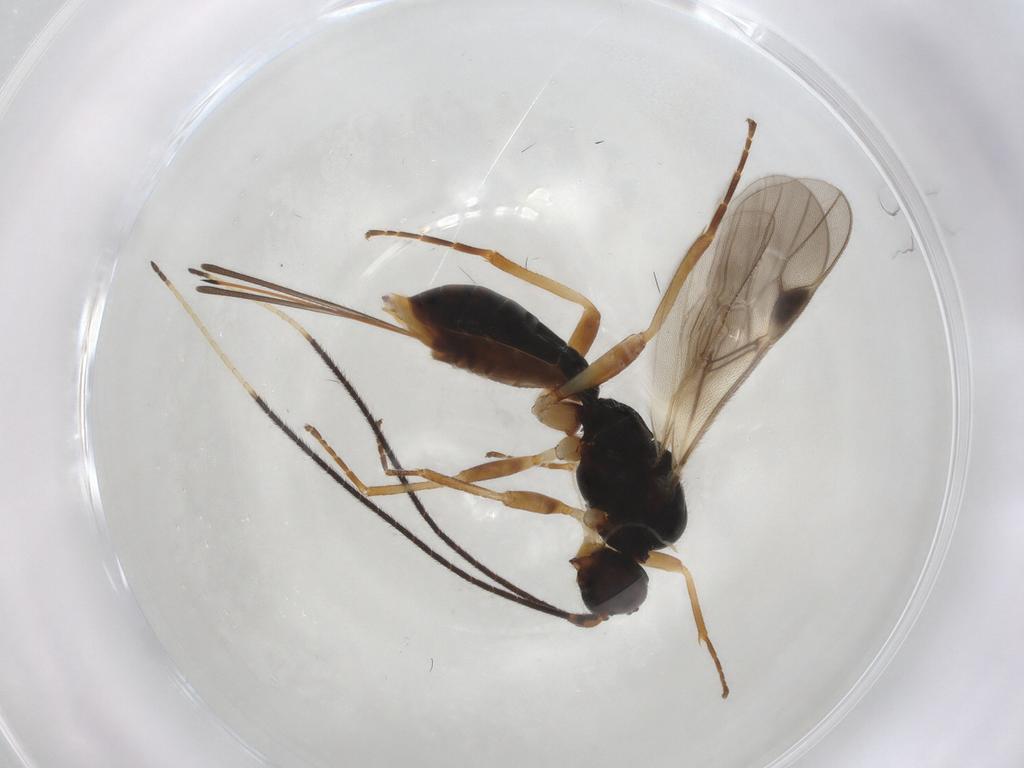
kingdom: Animalia
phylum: Arthropoda
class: Insecta
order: Hymenoptera
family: Braconidae
